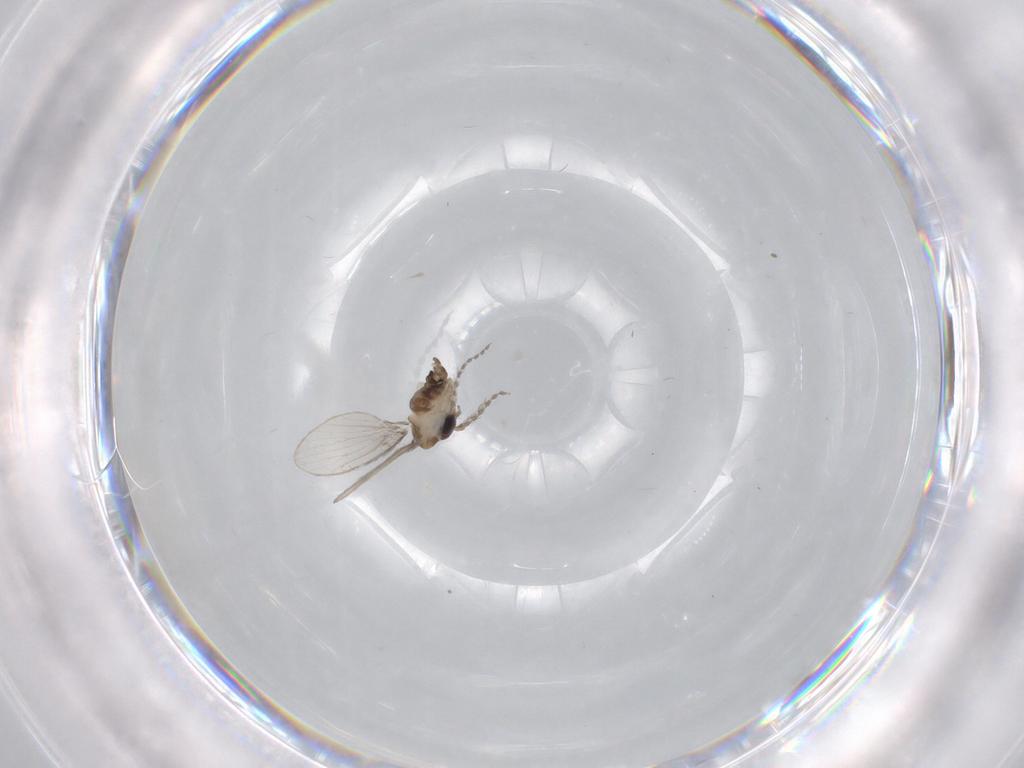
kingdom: Animalia
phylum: Arthropoda
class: Insecta
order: Diptera
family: Psychodidae
